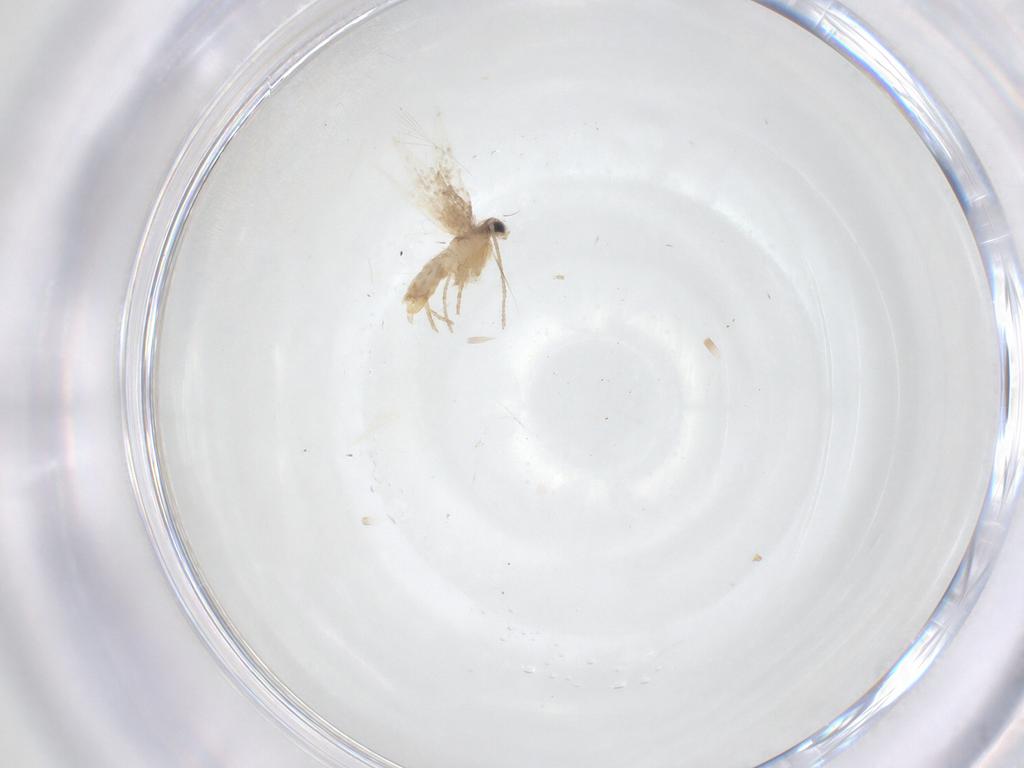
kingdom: Animalia
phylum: Arthropoda
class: Insecta
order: Lepidoptera
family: Nepticulidae
